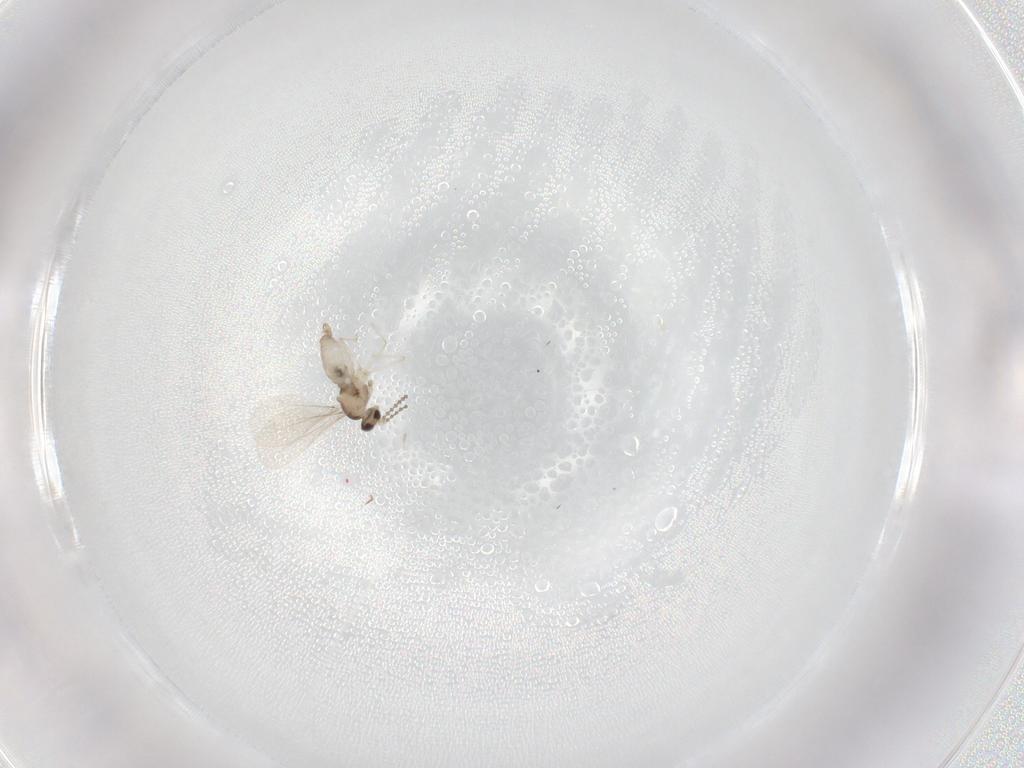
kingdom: Animalia
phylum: Arthropoda
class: Insecta
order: Diptera
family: Cecidomyiidae
